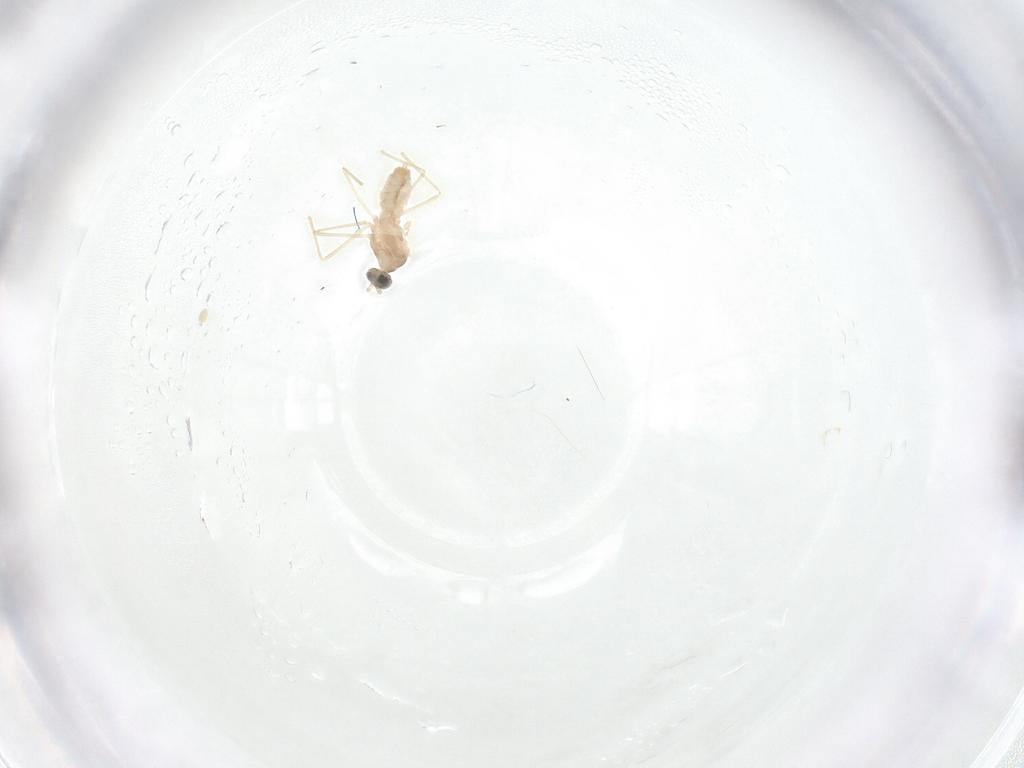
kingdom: Animalia
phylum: Arthropoda
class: Insecta
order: Diptera
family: Cecidomyiidae
